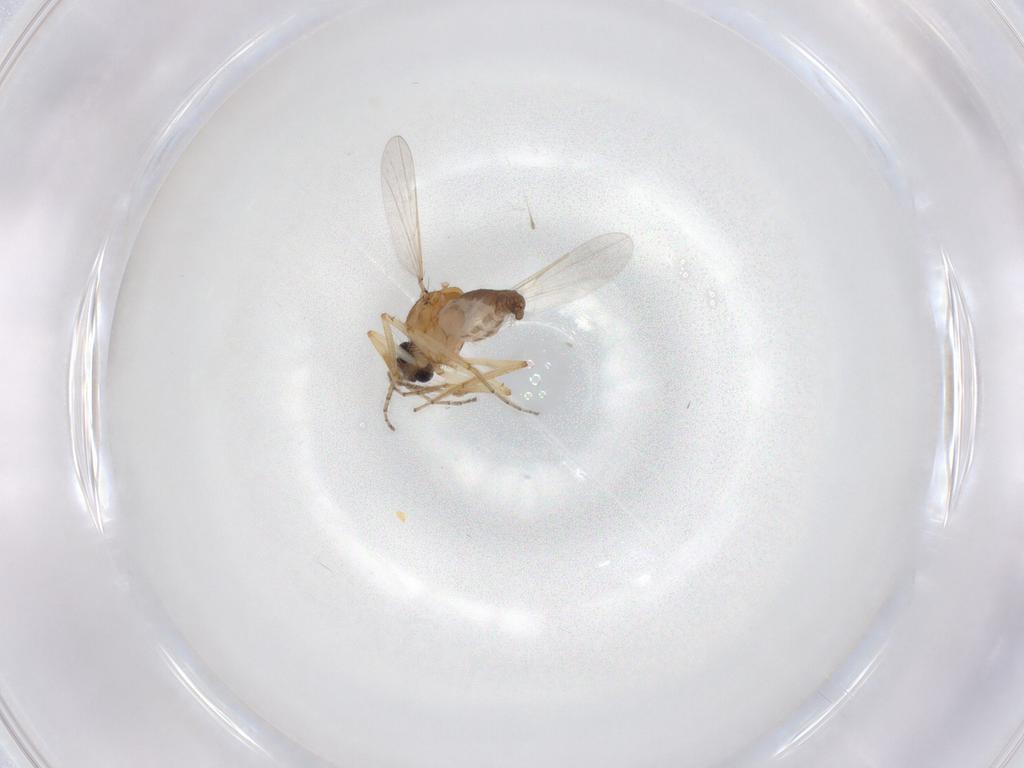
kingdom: Animalia
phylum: Arthropoda
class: Insecta
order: Diptera
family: Ceratopogonidae
